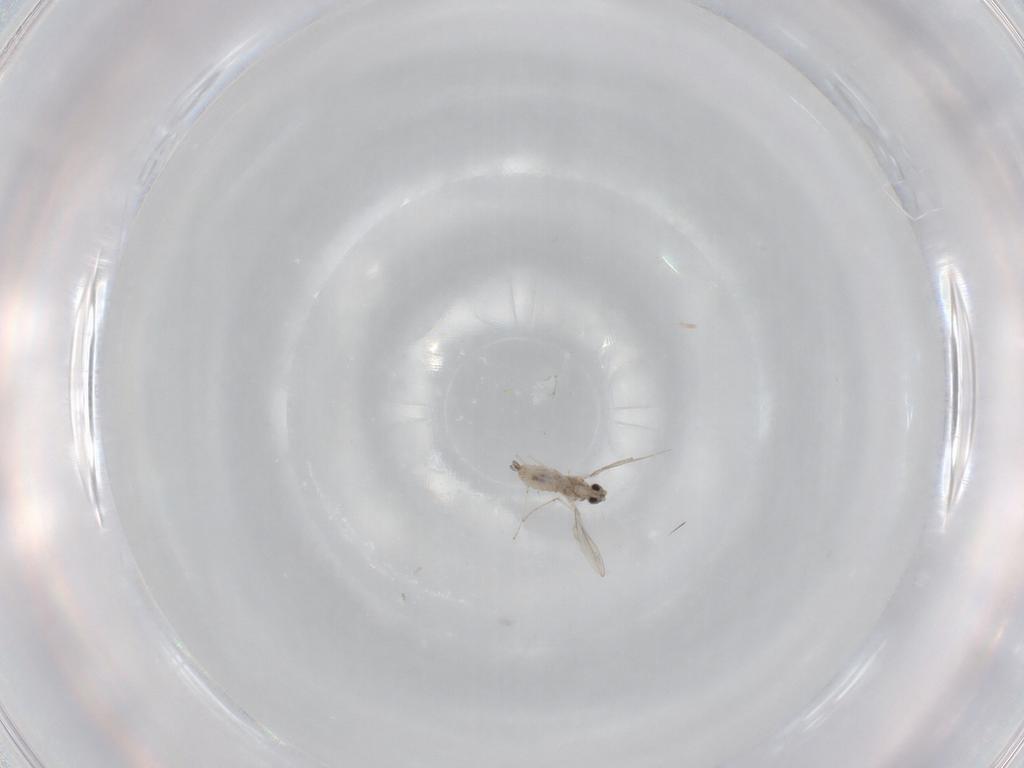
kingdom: Animalia
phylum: Arthropoda
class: Insecta
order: Diptera
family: Cecidomyiidae
